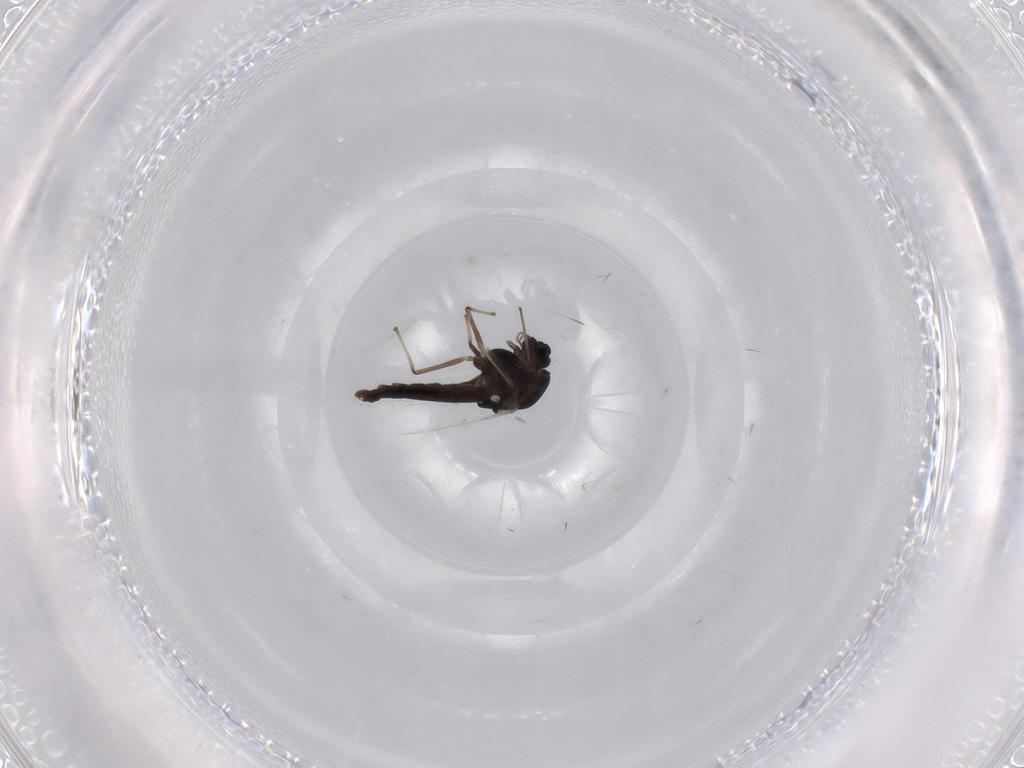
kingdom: Animalia
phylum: Arthropoda
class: Insecta
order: Diptera
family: Chironomidae
